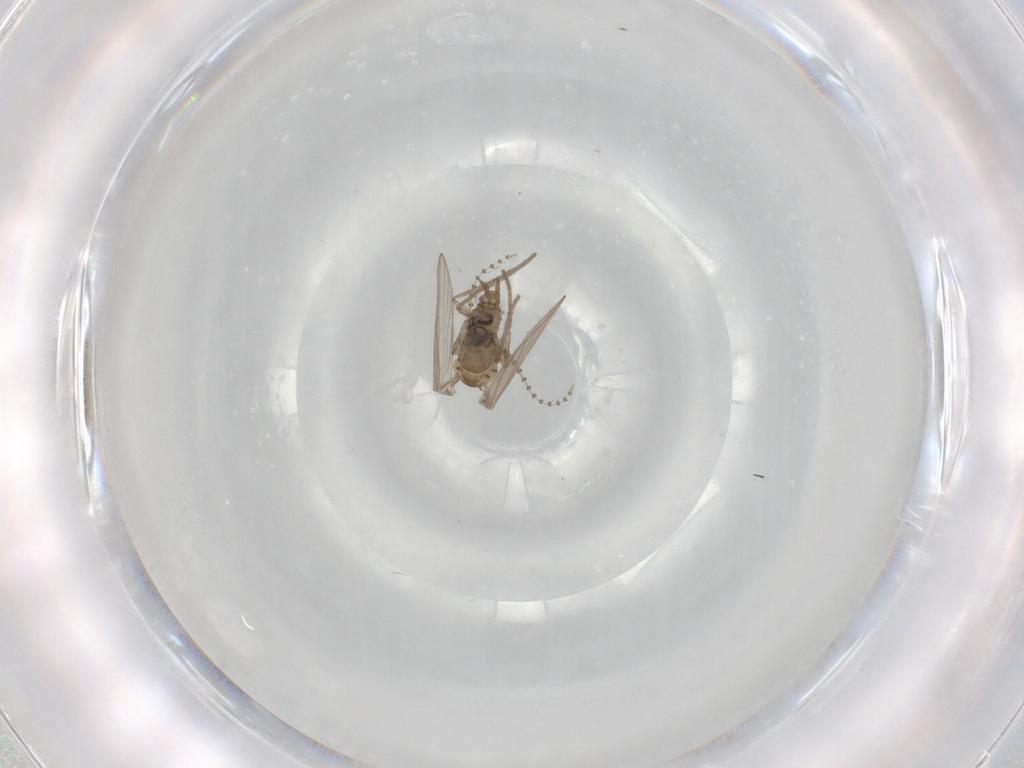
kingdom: Animalia
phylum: Arthropoda
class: Insecta
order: Diptera
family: Psychodidae
